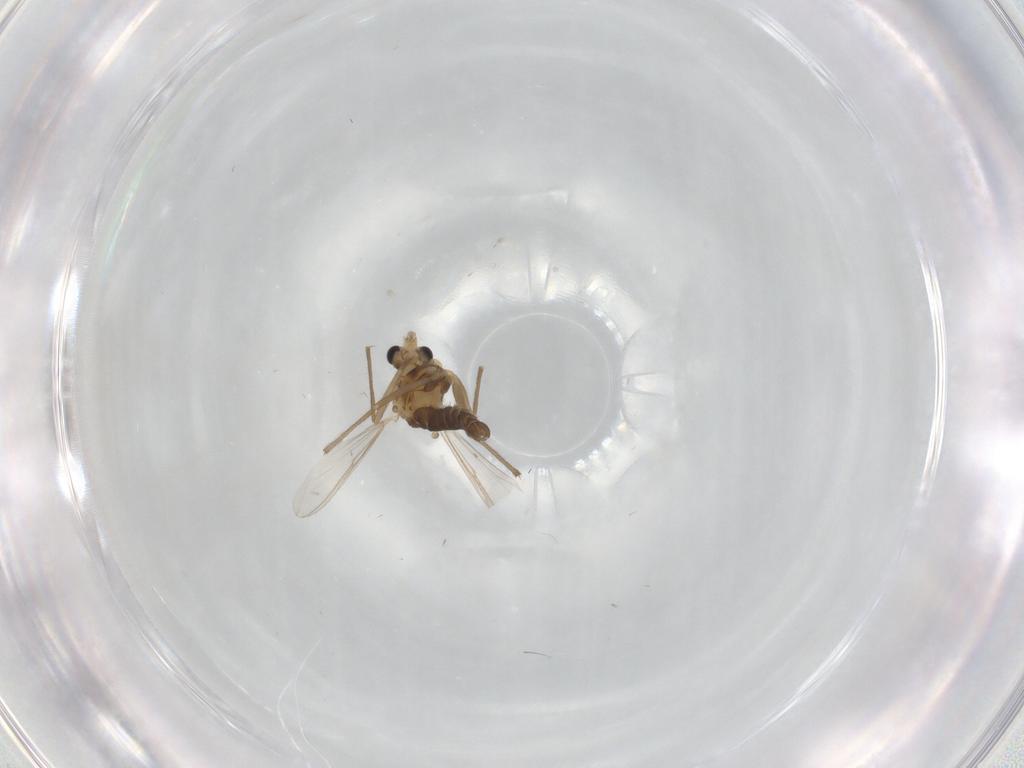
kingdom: Animalia
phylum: Arthropoda
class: Insecta
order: Diptera
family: Chironomidae
